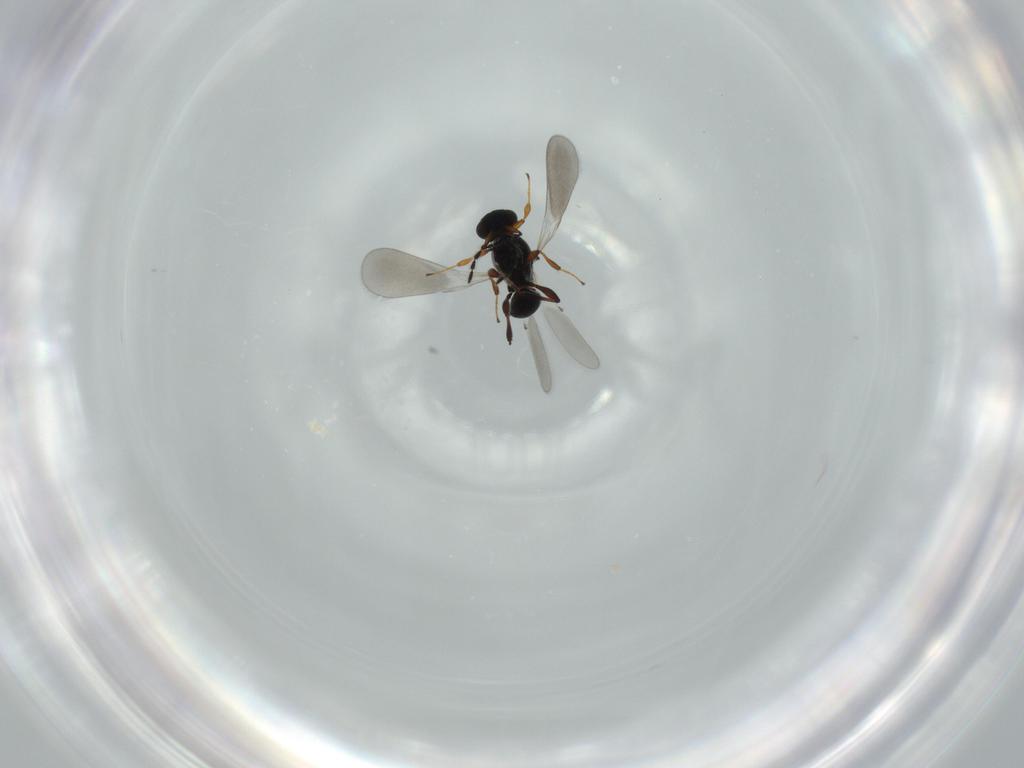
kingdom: Animalia
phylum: Arthropoda
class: Insecta
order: Hymenoptera
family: Platygastridae
